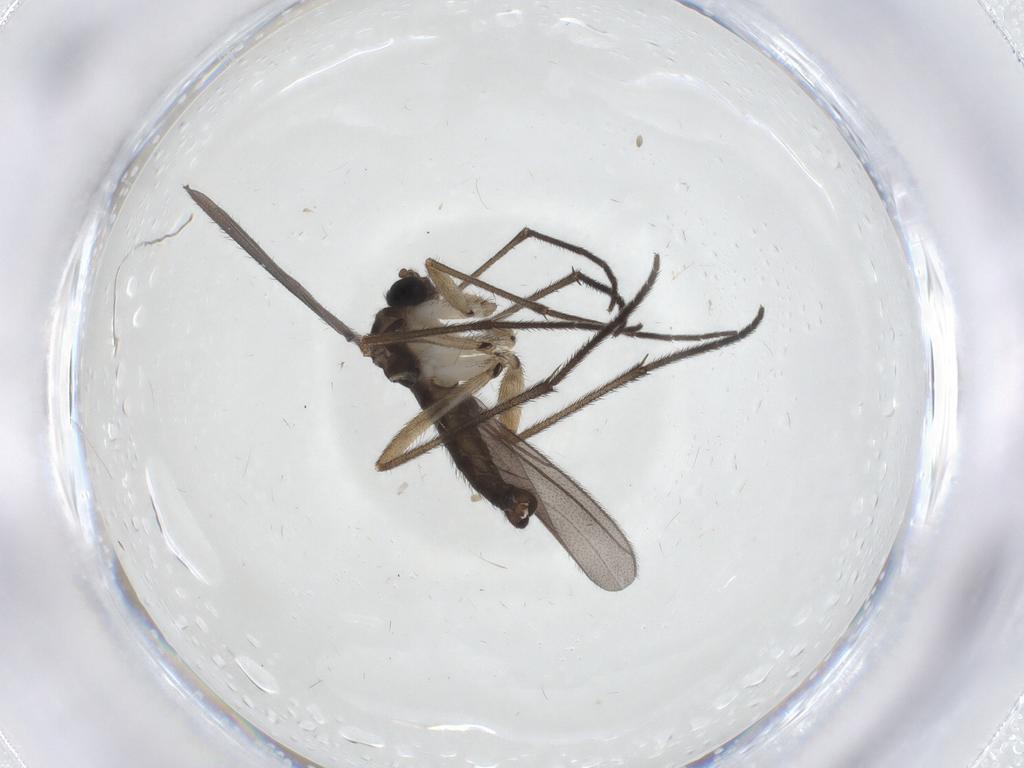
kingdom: Animalia
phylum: Arthropoda
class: Insecta
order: Diptera
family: Sciaridae
